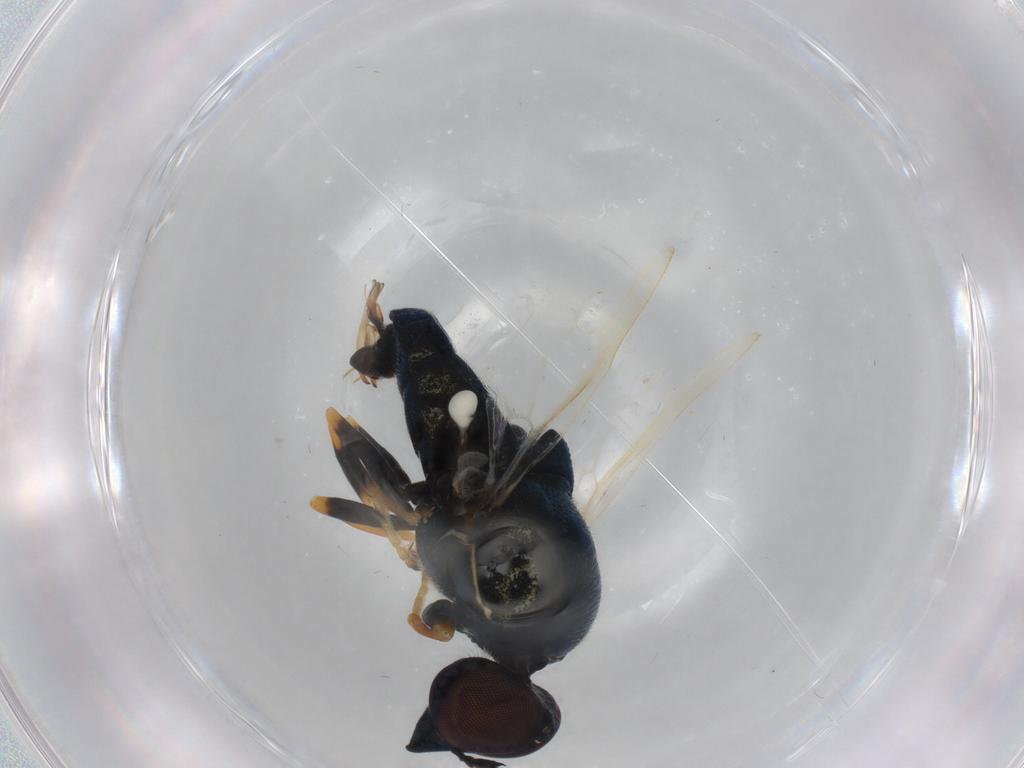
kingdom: Animalia
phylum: Arthropoda
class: Insecta
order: Diptera
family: Stratiomyidae
